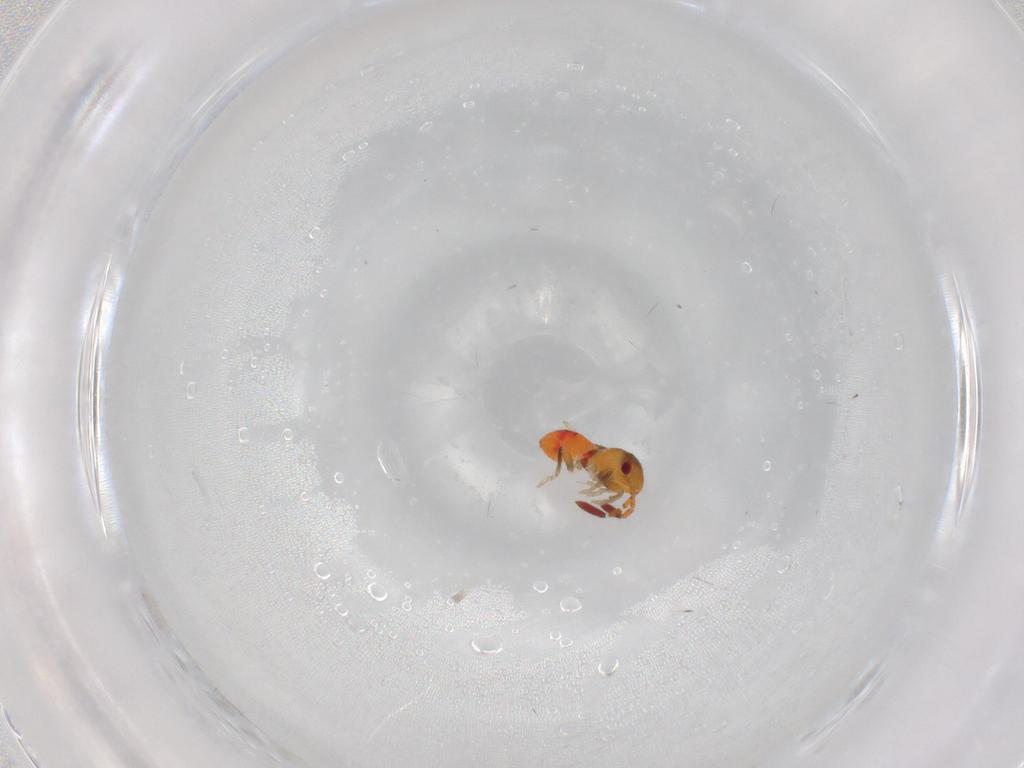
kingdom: Animalia
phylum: Arthropoda
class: Insecta
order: Hemiptera
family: Rhyparochromidae
